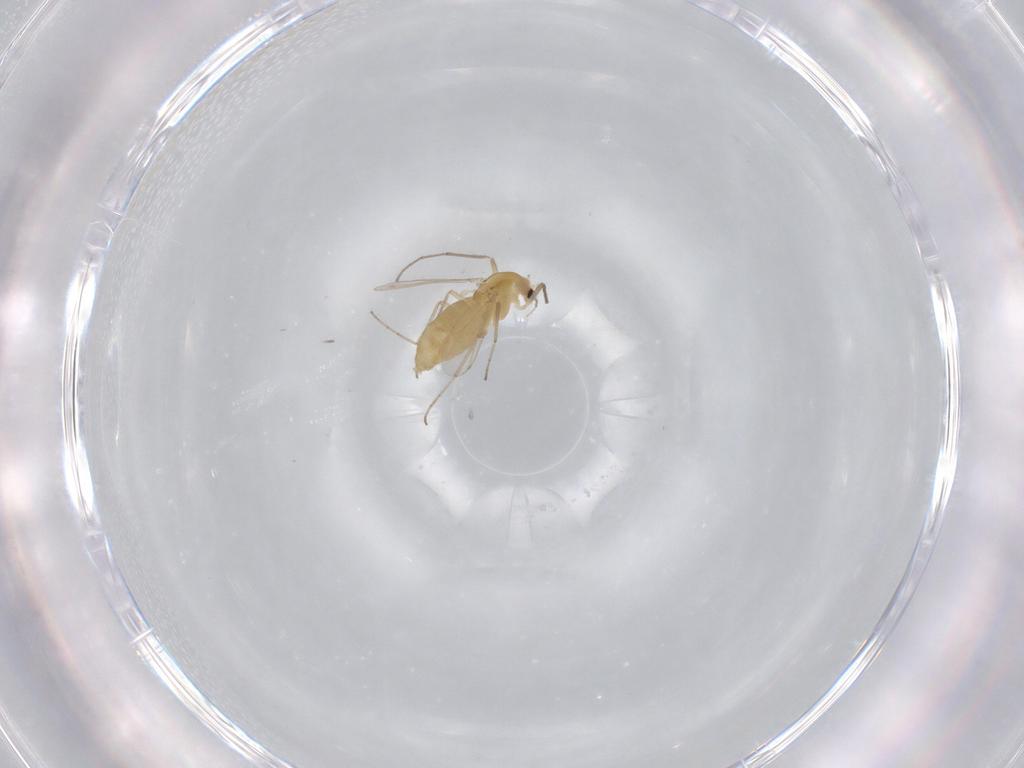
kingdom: Animalia
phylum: Arthropoda
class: Insecta
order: Diptera
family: Chironomidae
